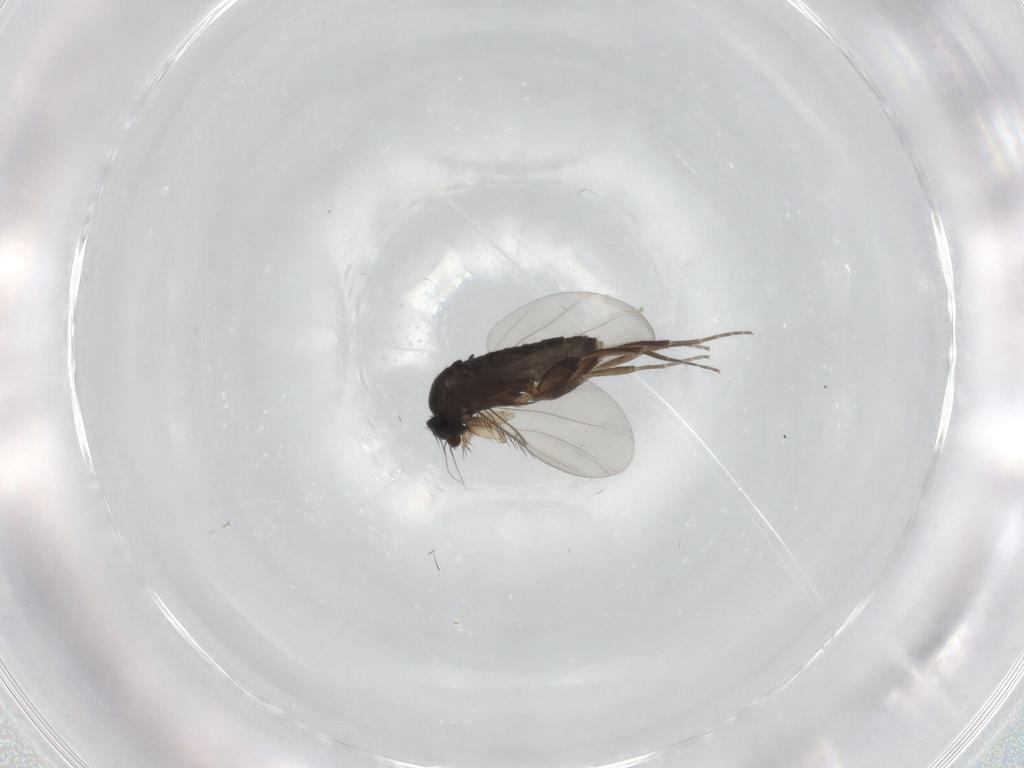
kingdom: Animalia
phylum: Arthropoda
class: Insecta
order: Diptera
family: Phoridae
